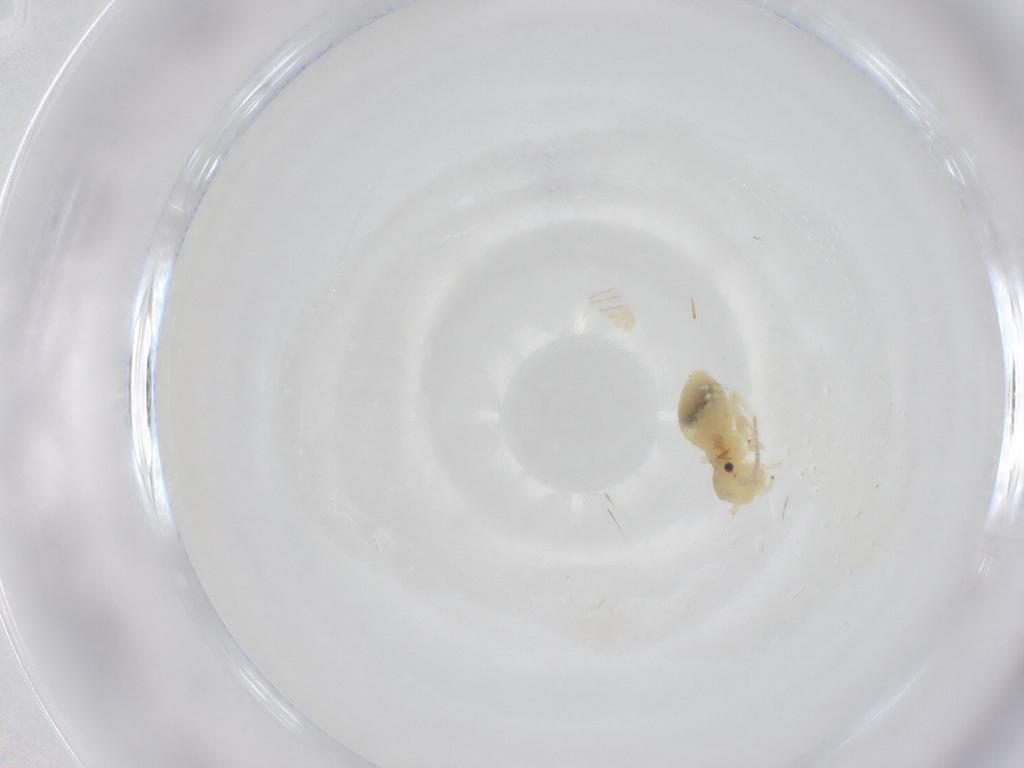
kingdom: Animalia
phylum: Arthropoda
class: Insecta
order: Psocodea
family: Amphipsocidae
